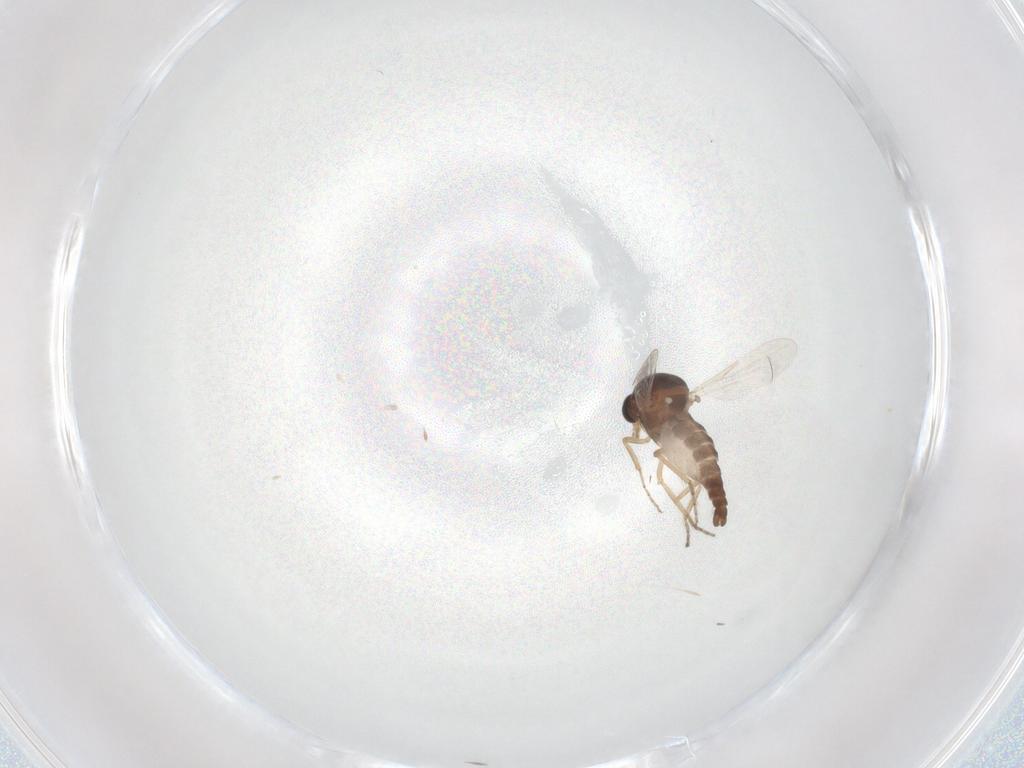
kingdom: Animalia
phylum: Arthropoda
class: Insecta
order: Diptera
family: Ceratopogonidae
